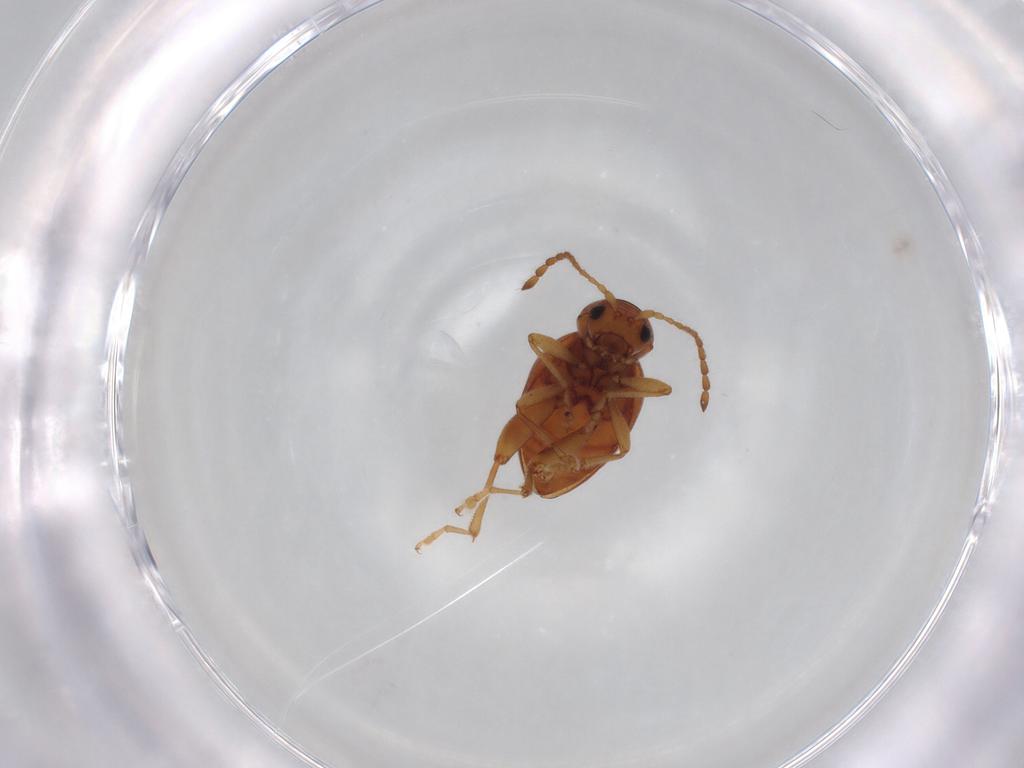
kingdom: Animalia
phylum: Arthropoda
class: Insecta
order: Coleoptera
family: Chrysomelidae
